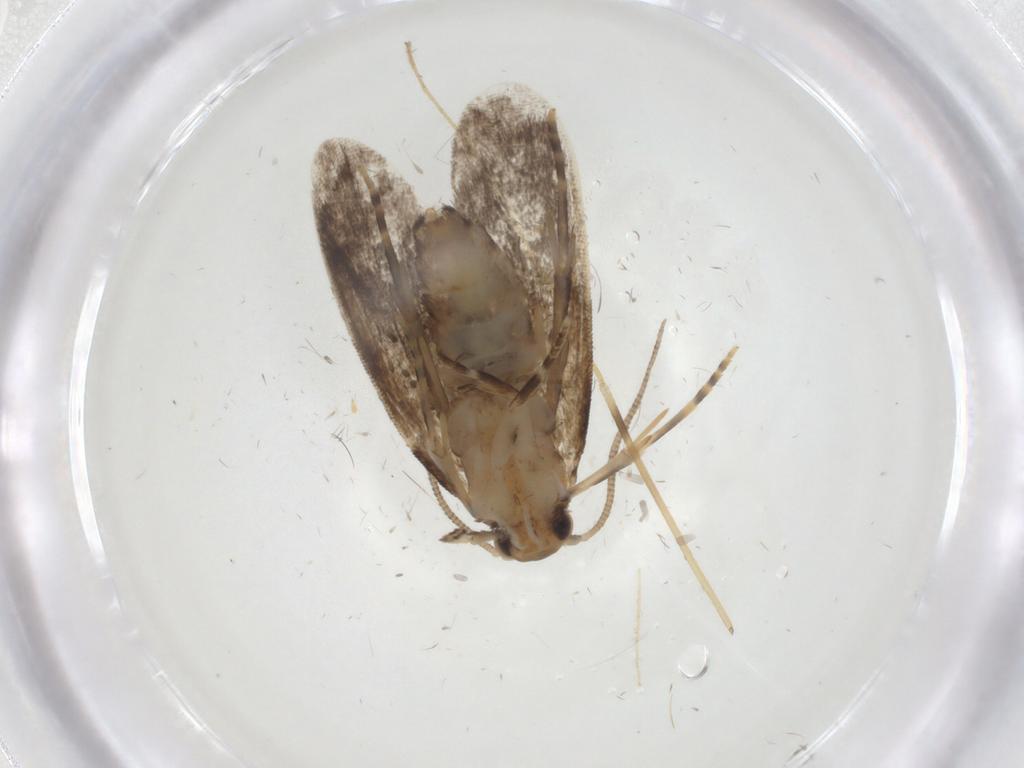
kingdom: Animalia
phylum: Arthropoda
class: Insecta
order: Lepidoptera
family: Dryadaulidae
